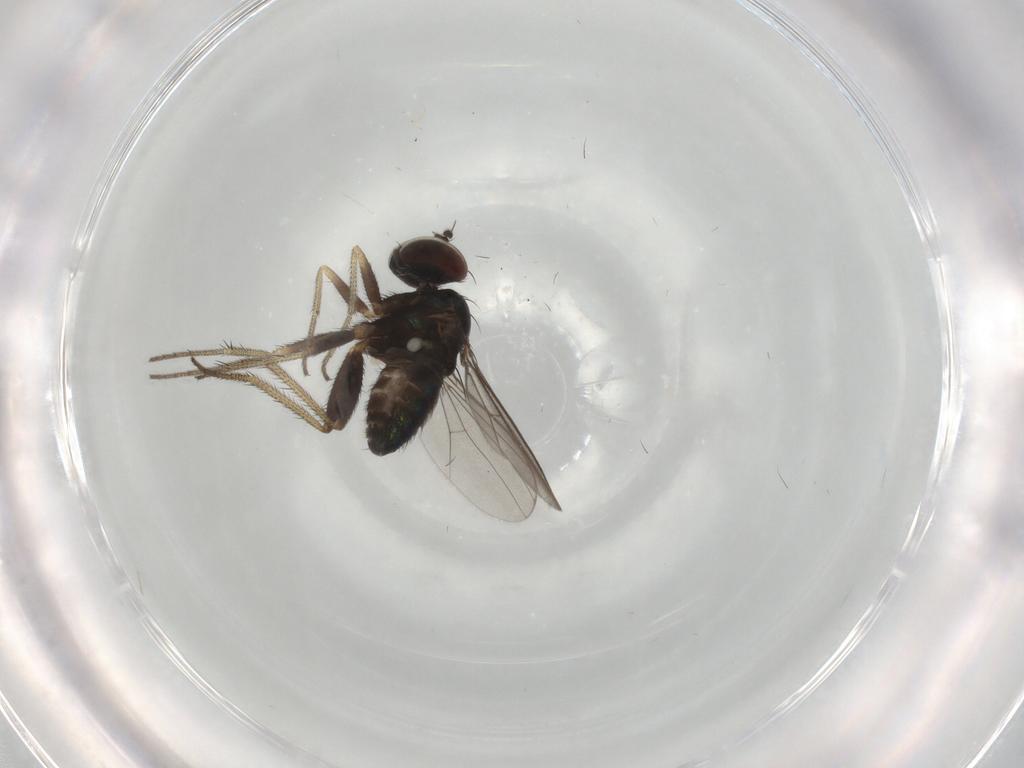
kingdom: Animalia
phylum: Arthropoda
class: Insecta
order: Diptera
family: Dolichopodidae
